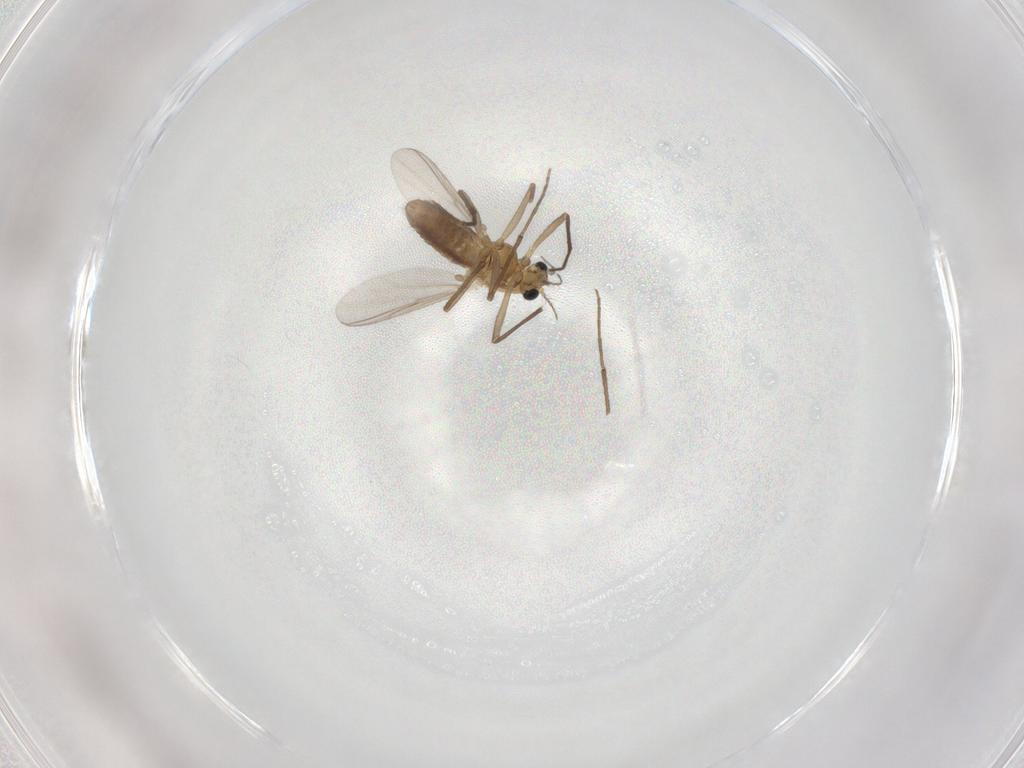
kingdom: Animalia
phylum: Arthropoda
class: Insecta
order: Diptera
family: Chironomidae
